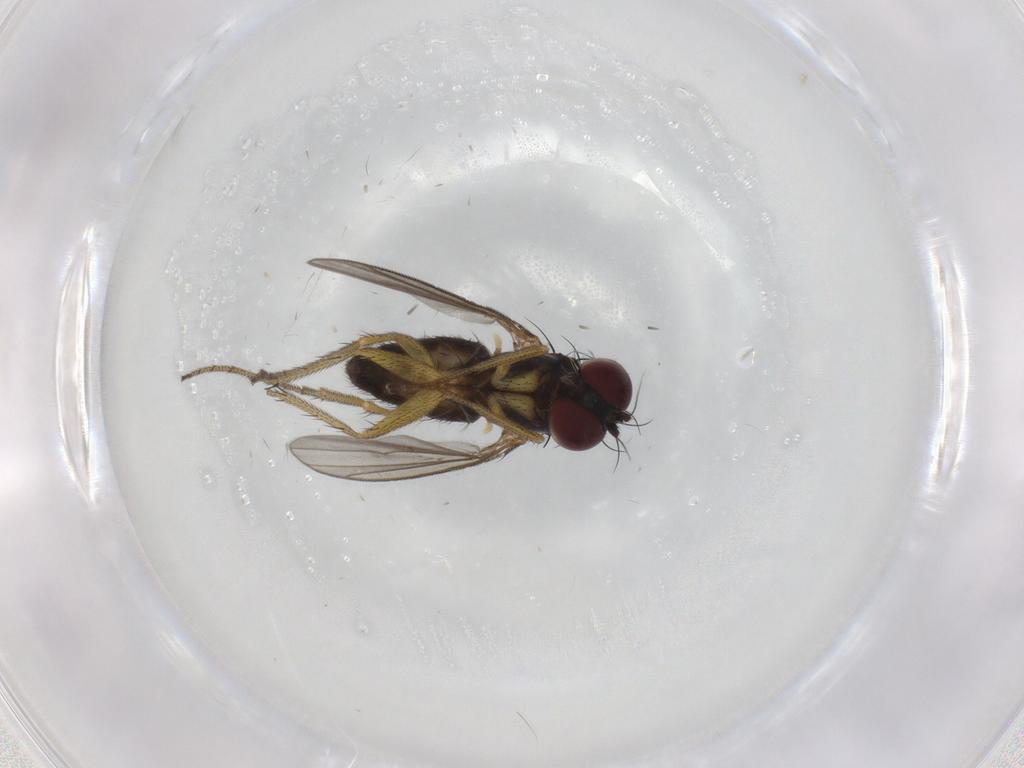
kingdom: Animalia
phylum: Arthropoda
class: Insecta
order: Diptera
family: Dolichopodidae
